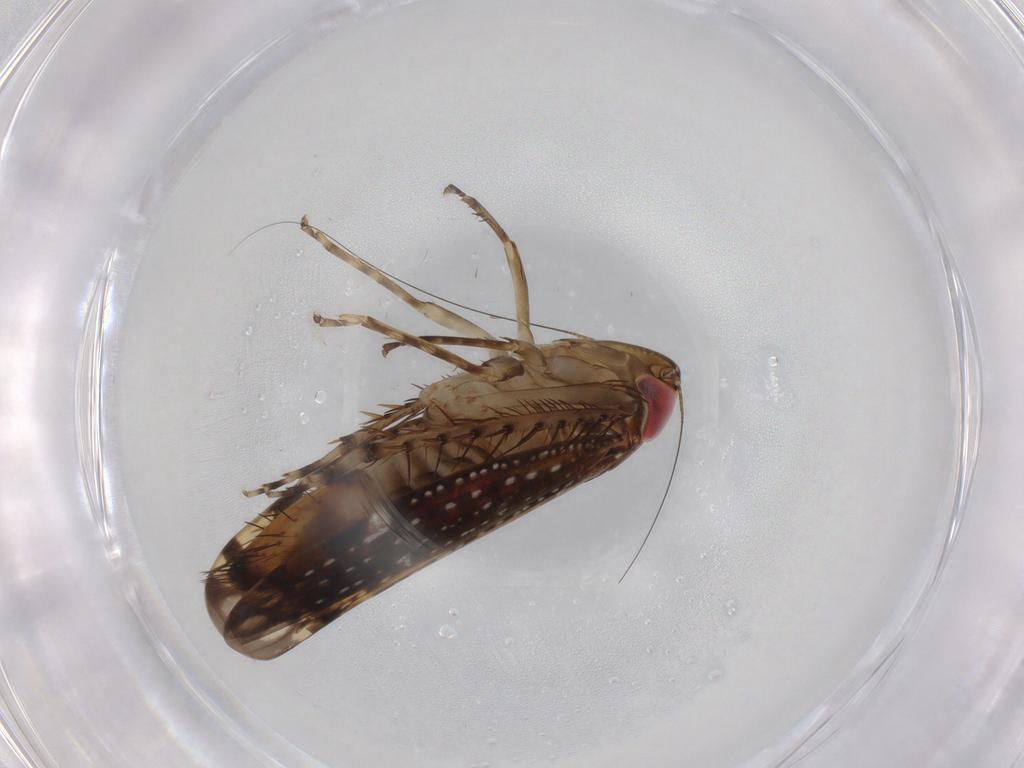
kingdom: Animalia
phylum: Arthropoda
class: Insecta
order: Hemiptera
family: Cicadellidae
